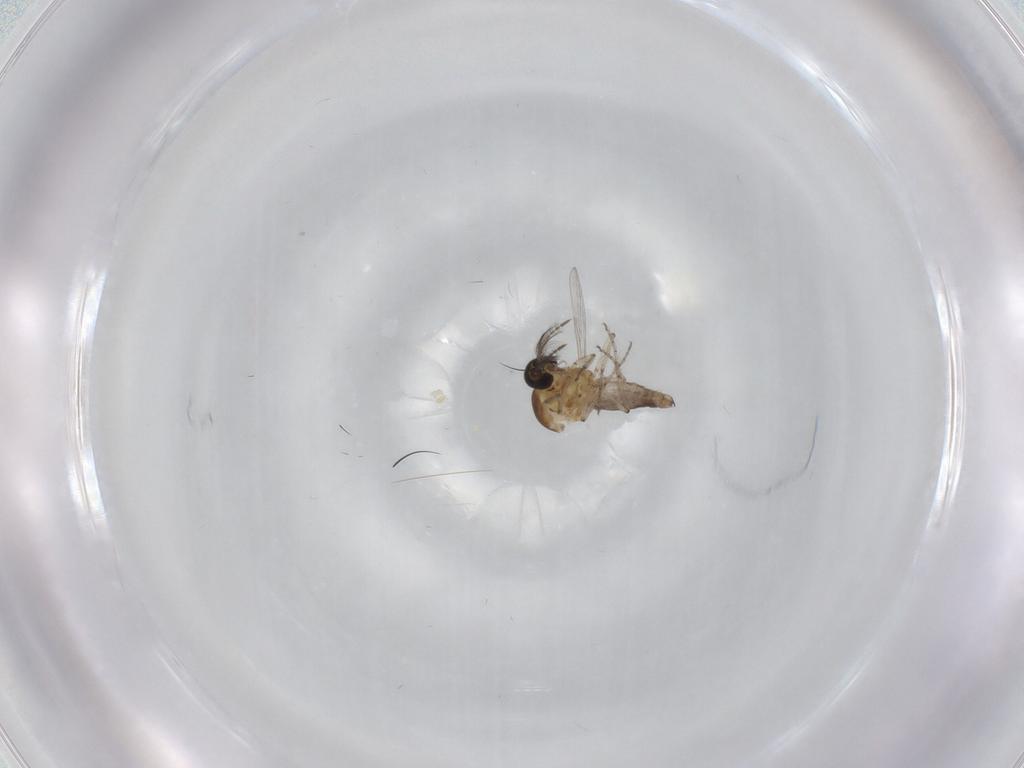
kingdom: Animalia
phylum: Arthropoda
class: Insecta
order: Diptera
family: Ceratopogonidae
